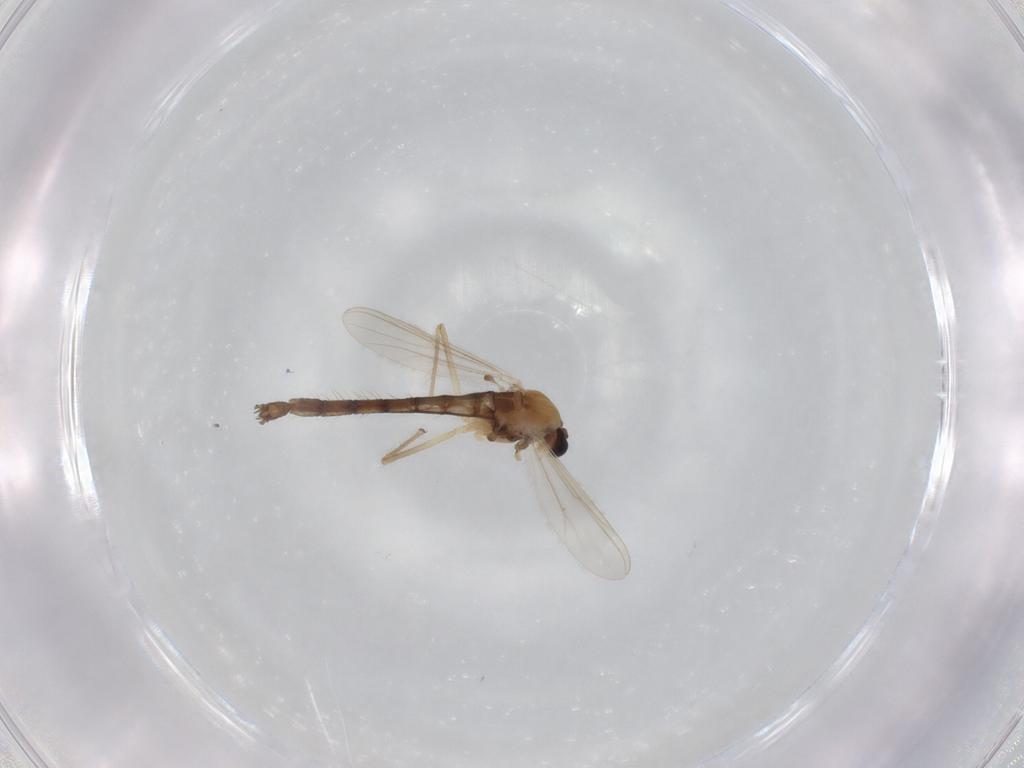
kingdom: Animalia
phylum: Arthropoda
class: Insecta
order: Diptera
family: Chironomidae
